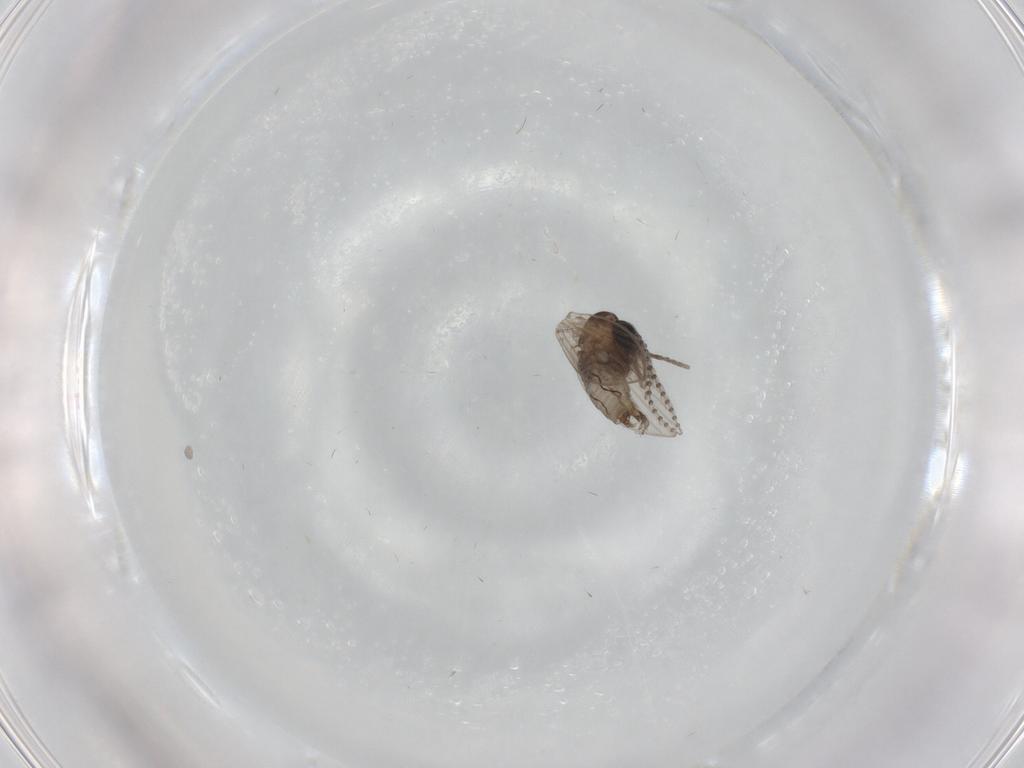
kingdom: Animalia
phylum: Arthropoda
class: Insecta
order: Diptera
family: Psychodidae
